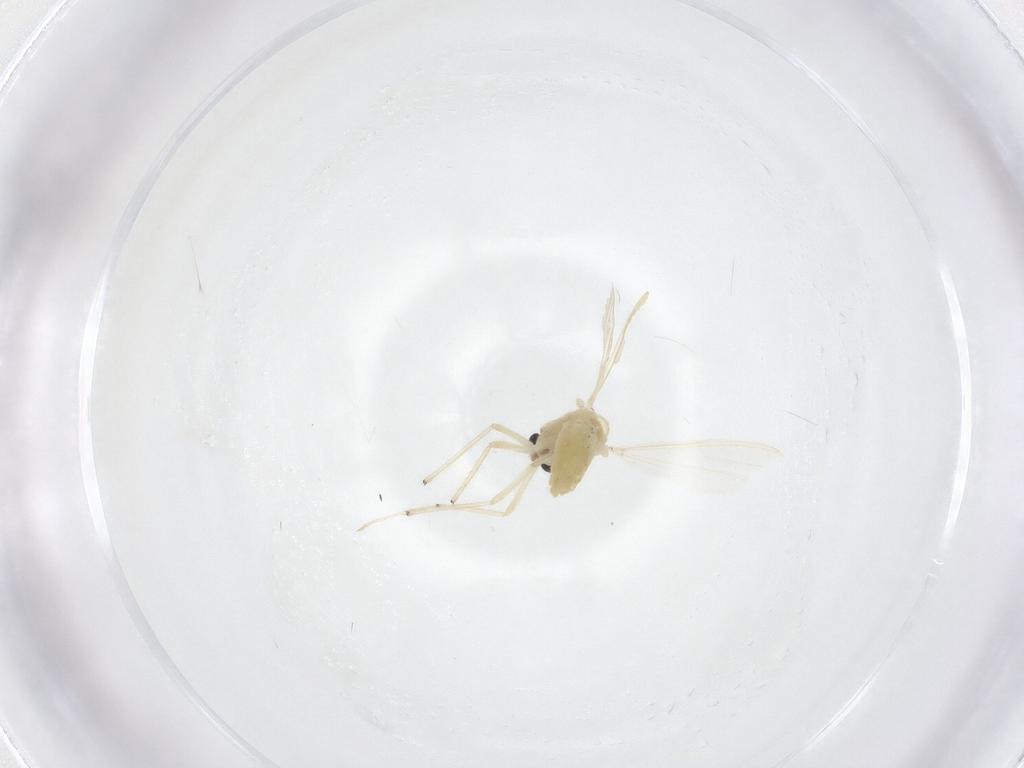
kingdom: Animalia
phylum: Arthropoda
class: Insecta
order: Diptera
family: Chironomidae
